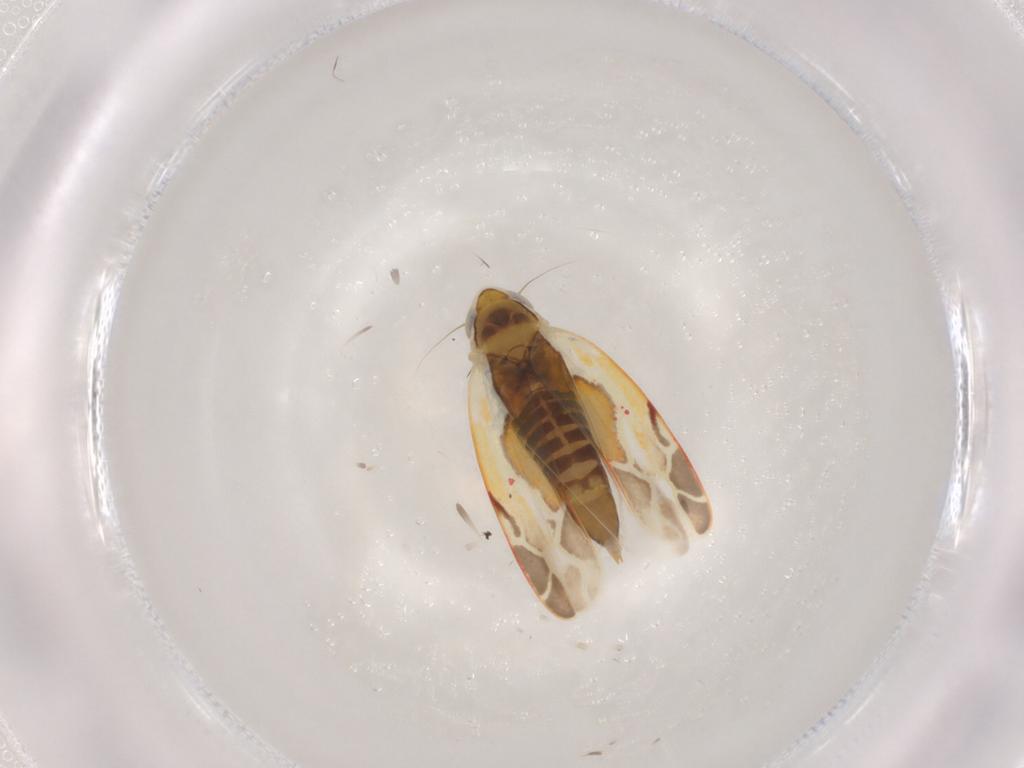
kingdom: Animalia
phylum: Arthropoda
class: Insecta
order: Hemiptera
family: Cicadellidae
